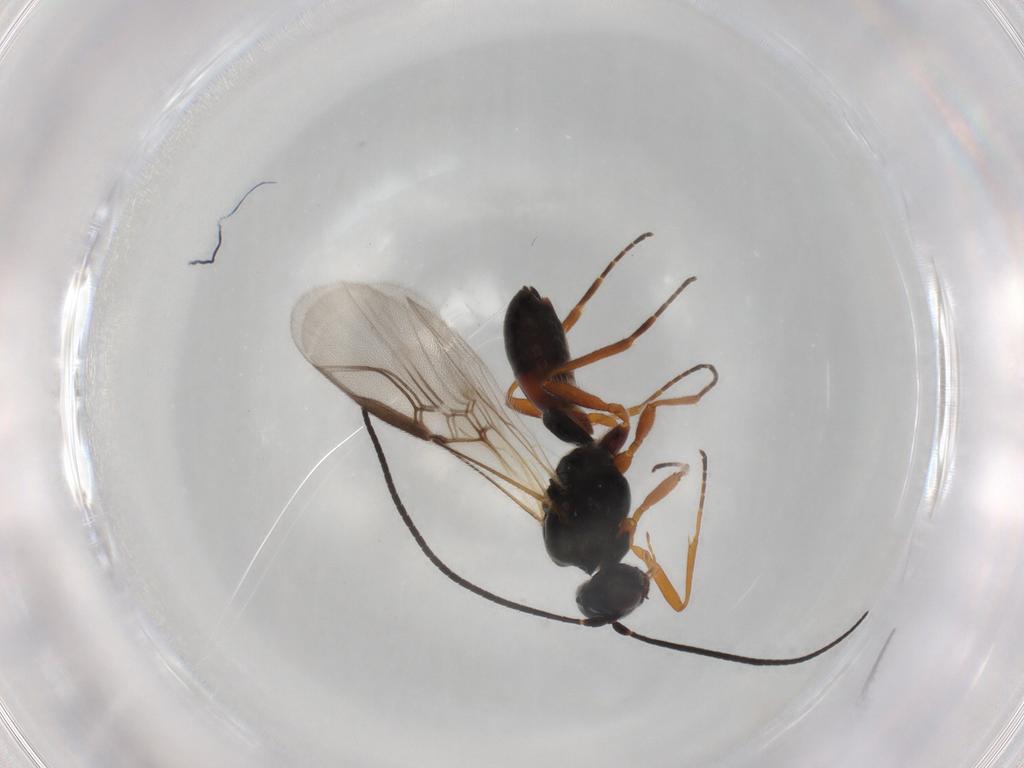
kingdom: Animalia
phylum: Arthropoda
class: Insecta
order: Hymenoptera
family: Braconidae
